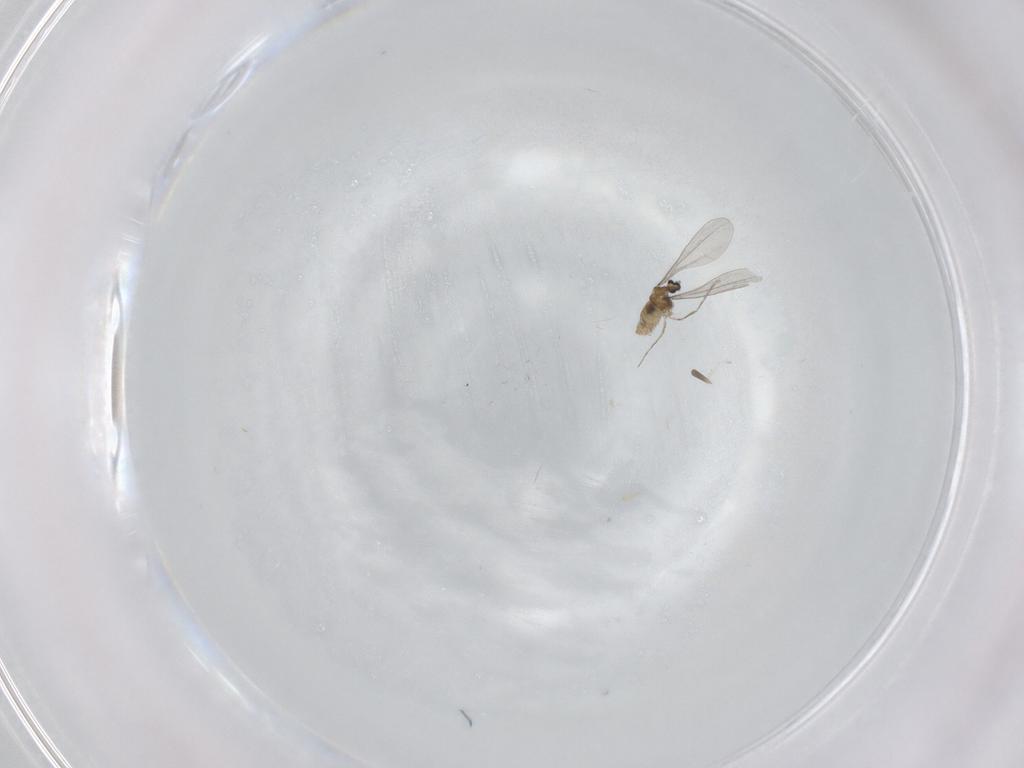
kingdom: Animalia
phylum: Arthropoda
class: Insecta
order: Diptera
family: Cecidomyiidae
